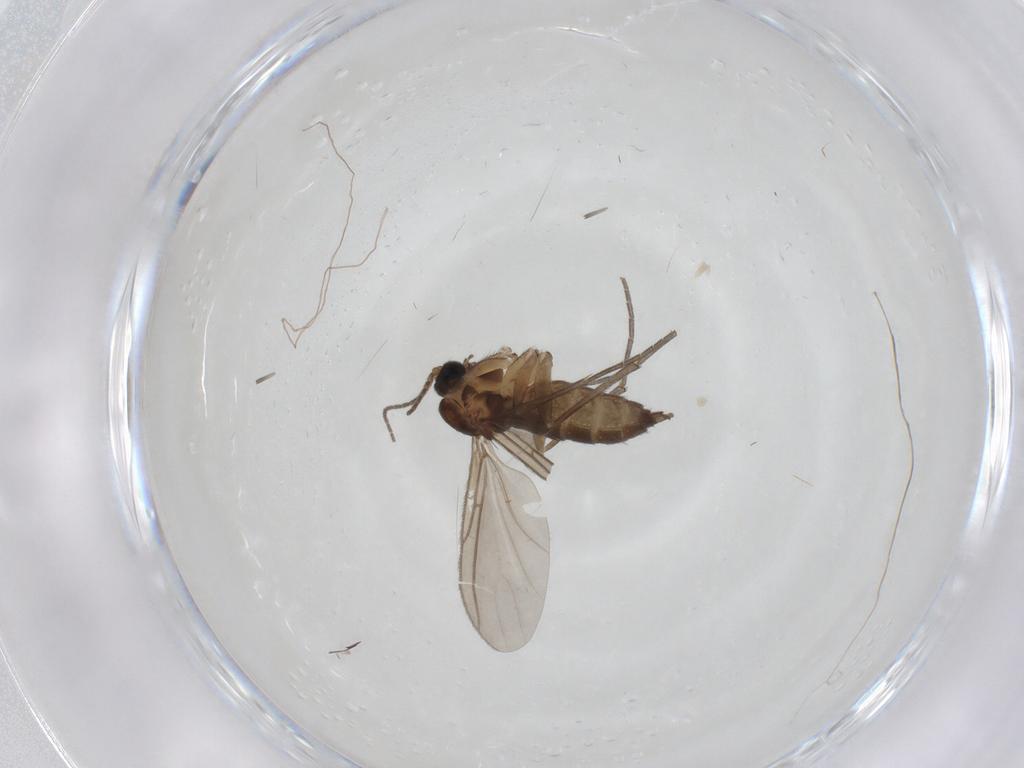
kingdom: Animalia
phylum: Arthropoda
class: Insecta
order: Diptera
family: Sciaridae
